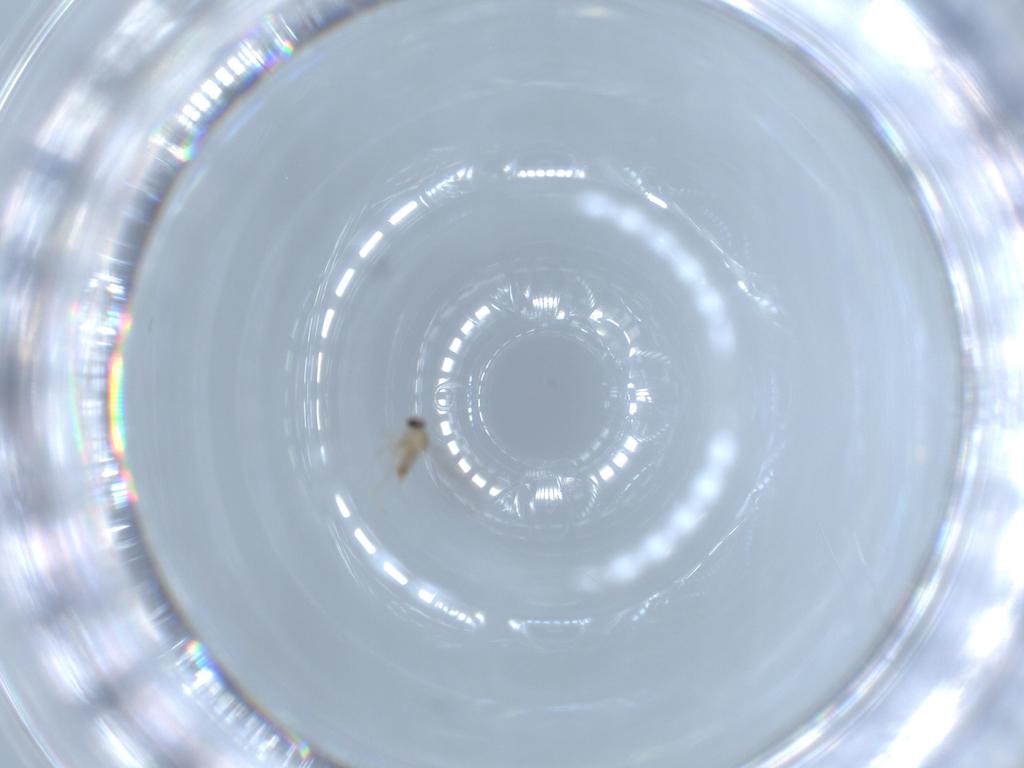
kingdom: Animalia
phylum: Arthropoda
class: Insecta
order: Diptera
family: Cecidomyiidae
